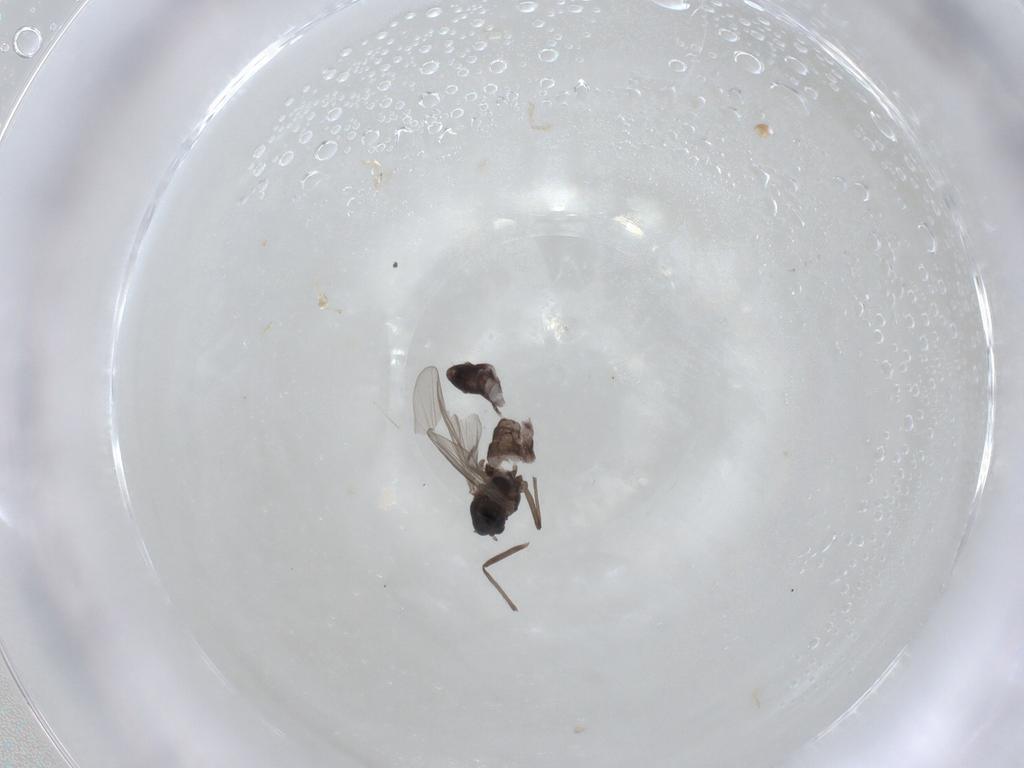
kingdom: Animalia
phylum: Arthropoda
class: Insecta
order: Diptera
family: Chironomidae
